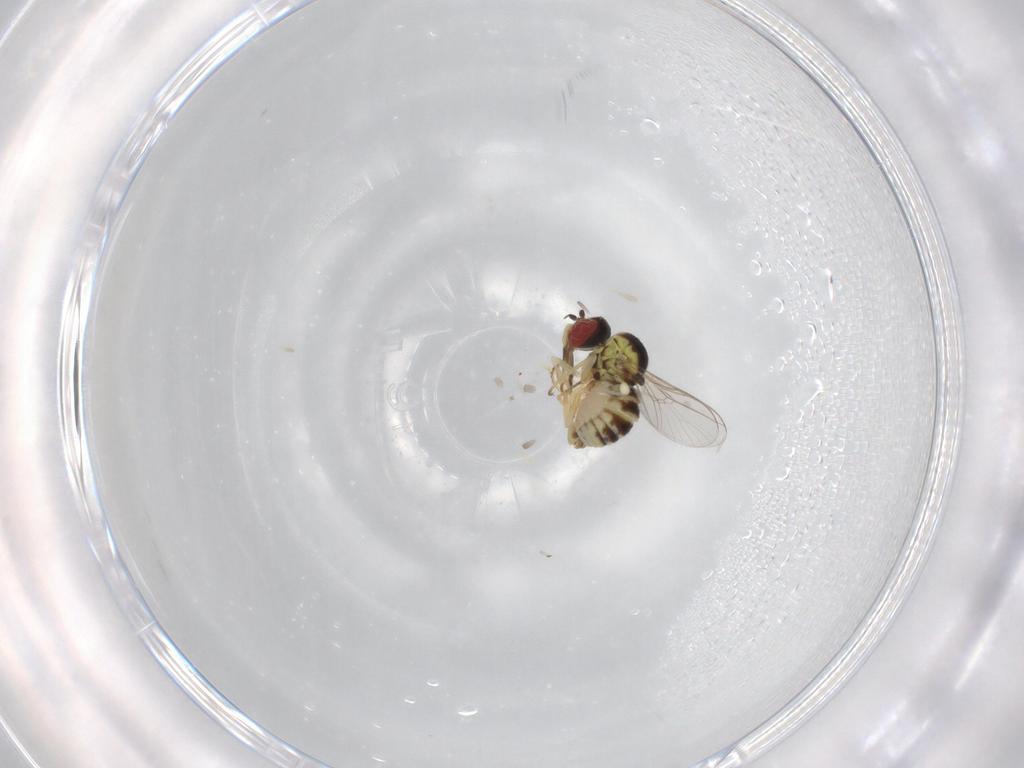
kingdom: Animalia
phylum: Arthropoda
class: Insecta
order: Diptera
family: Bombyliidae
